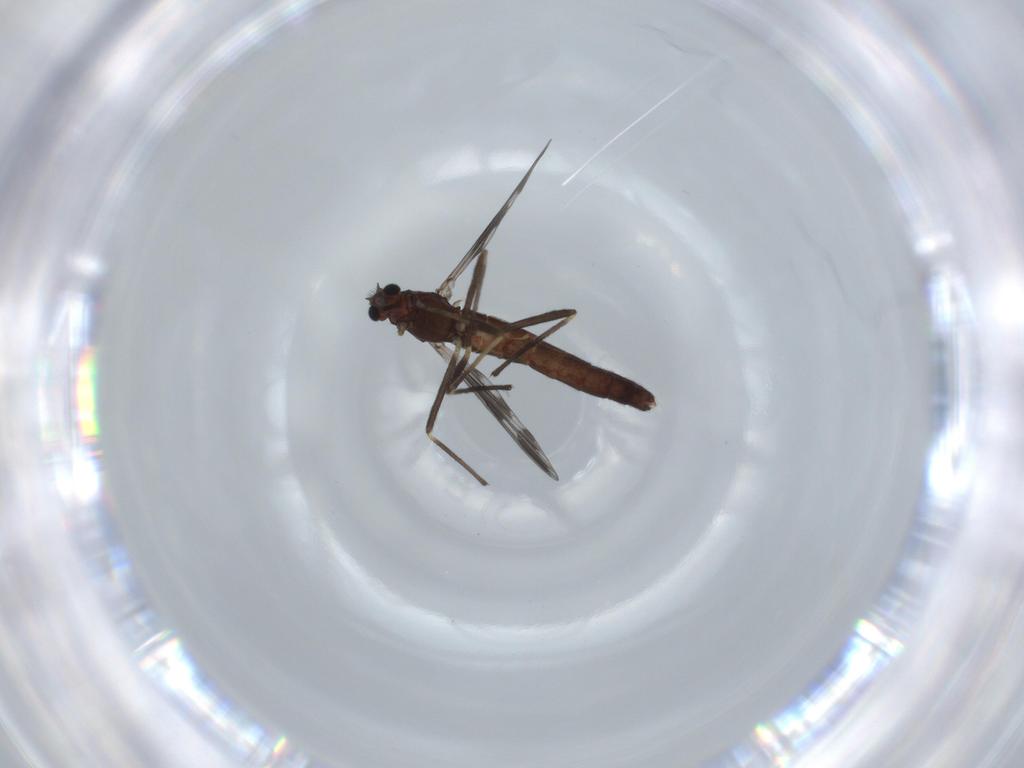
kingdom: Animalia
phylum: Arthropoda
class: Insecta
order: Diptera
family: Chironomidae
